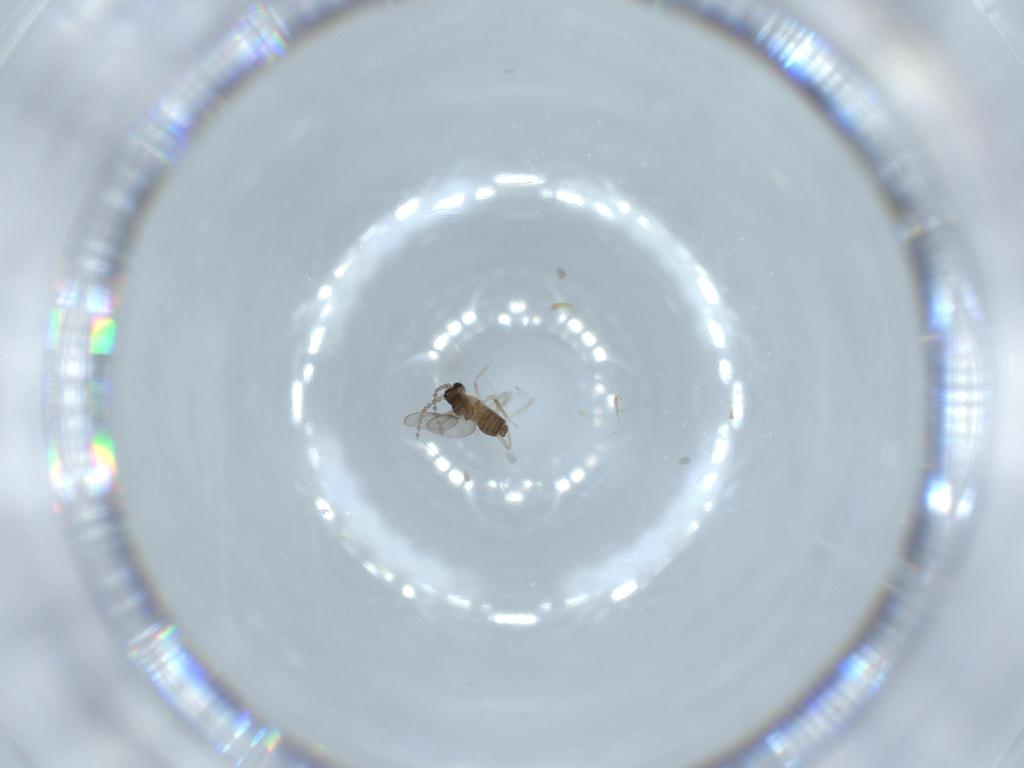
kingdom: Animalia
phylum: Arthropoda
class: Insecta
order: Diptera
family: Cecidomyiidae
